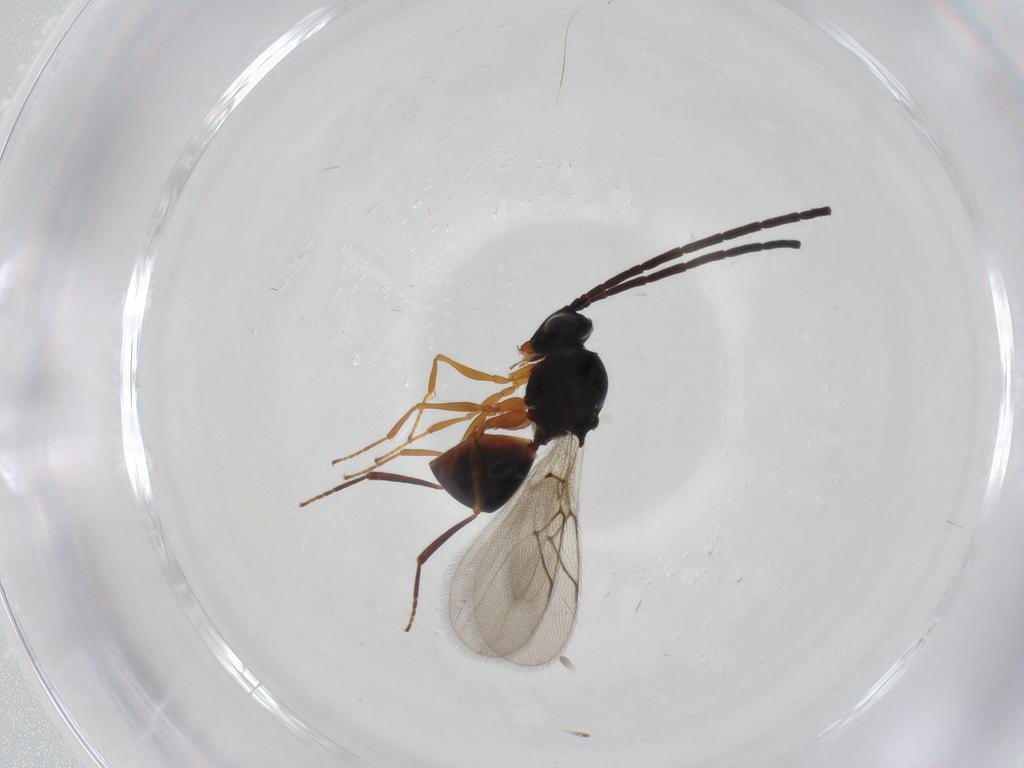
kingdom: Animalia
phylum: Arthropoda
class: Insecta
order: Hymenoptera
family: Figitidae
